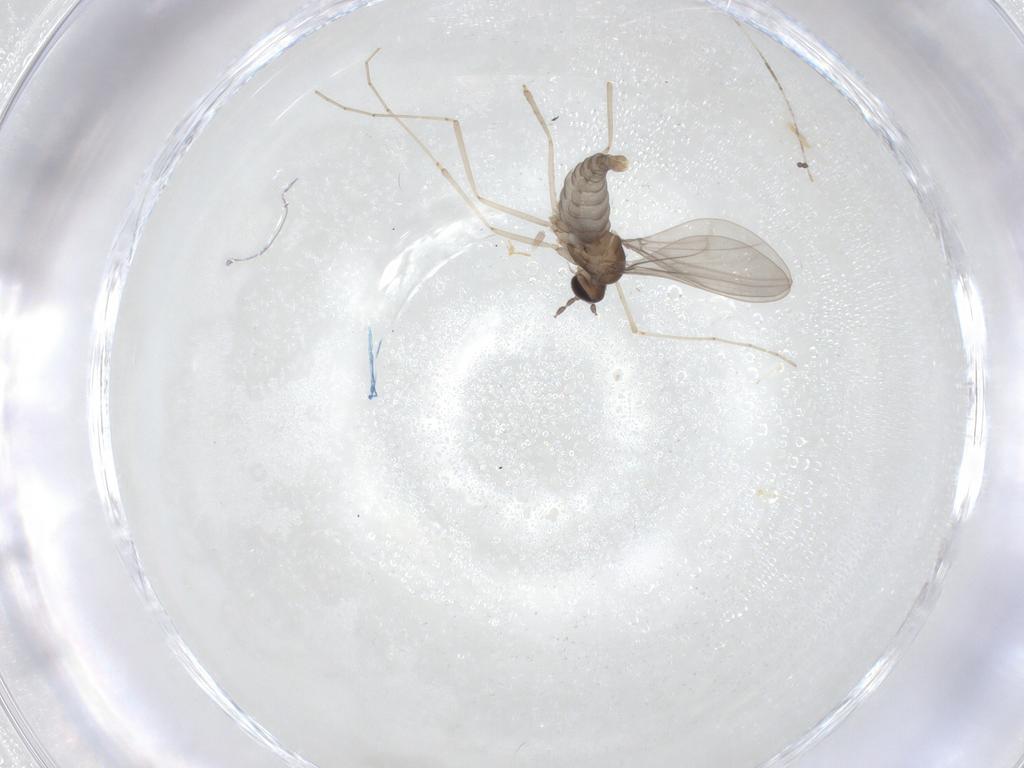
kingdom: Animalia
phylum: Arthropoda
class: Insecta
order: Diptera
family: Cecidomyiidae
